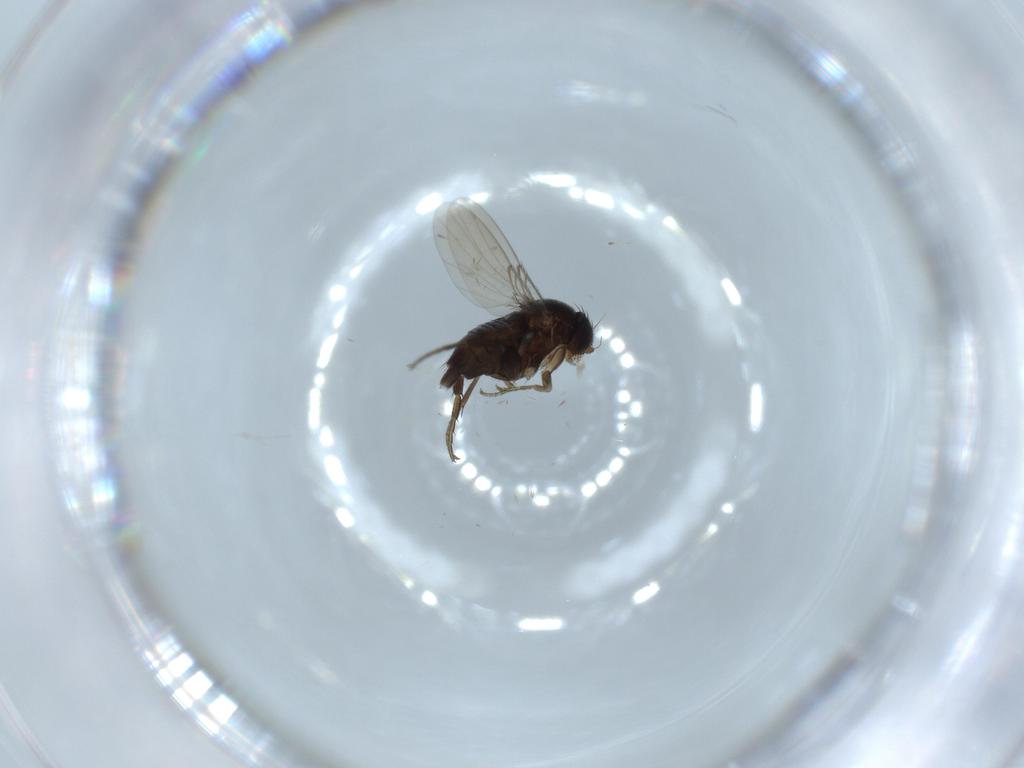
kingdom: Animalia
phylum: Arthropoda
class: Insecta
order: Diptera
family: Phoridae
